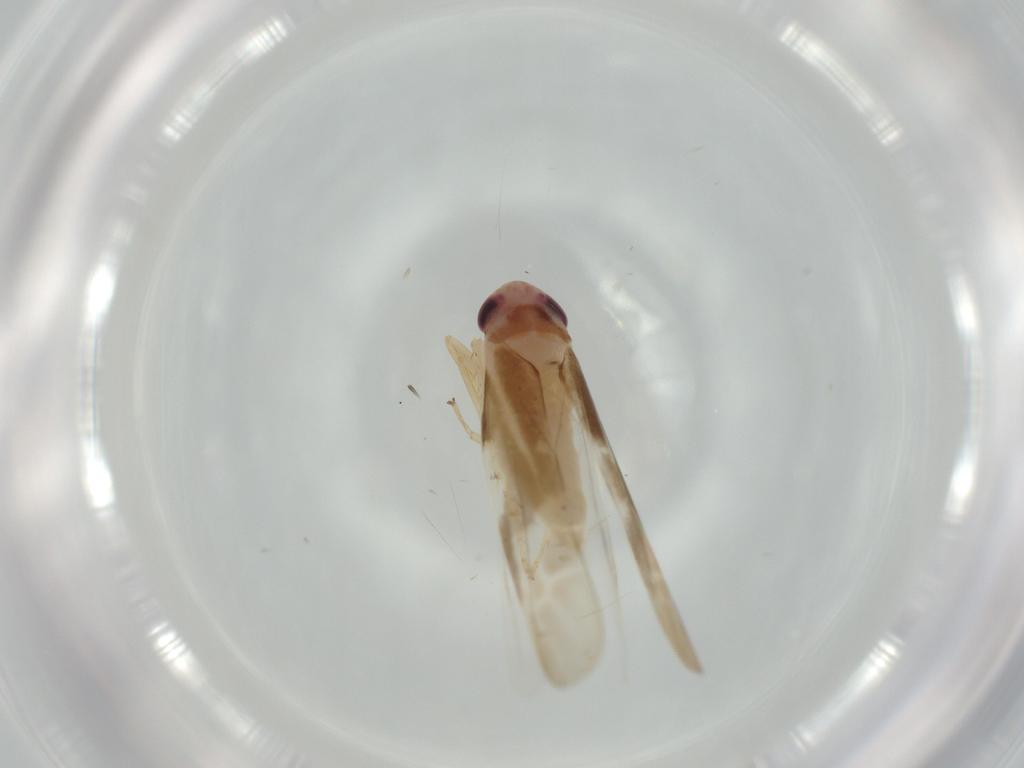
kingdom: Animalia
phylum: Arthropoda
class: Insecta
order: Hemiptera
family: Cicadellidae
